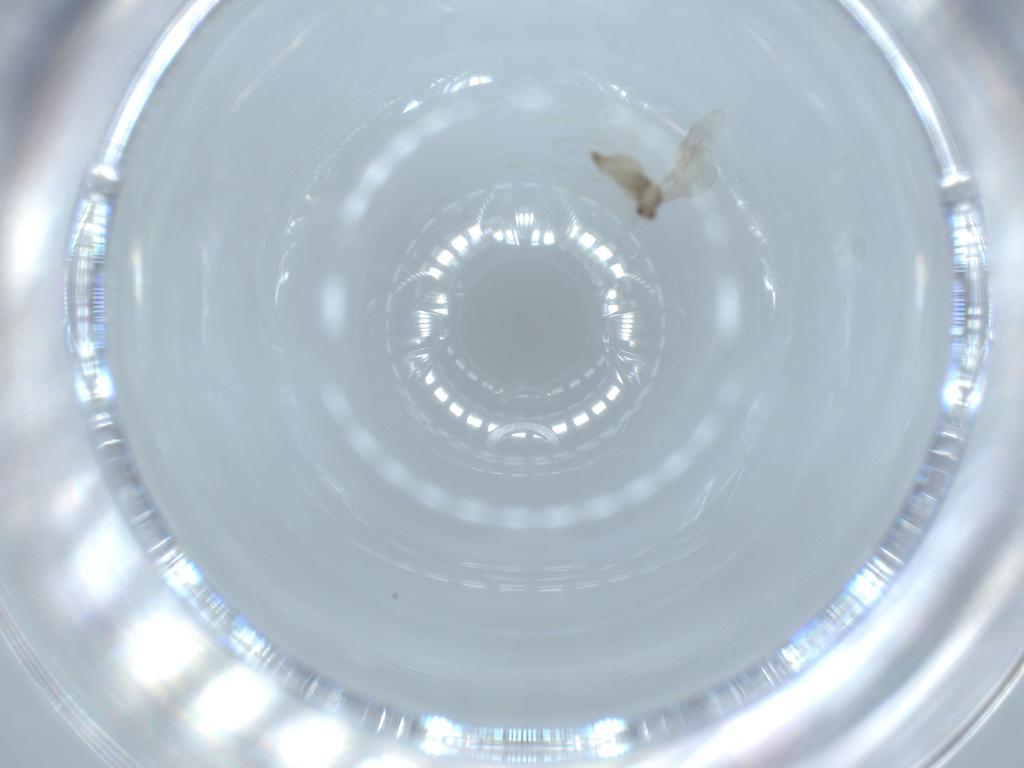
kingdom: Animalia
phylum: Arthropoda
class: Insecta
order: Diptera
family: Cecidomyiidae
